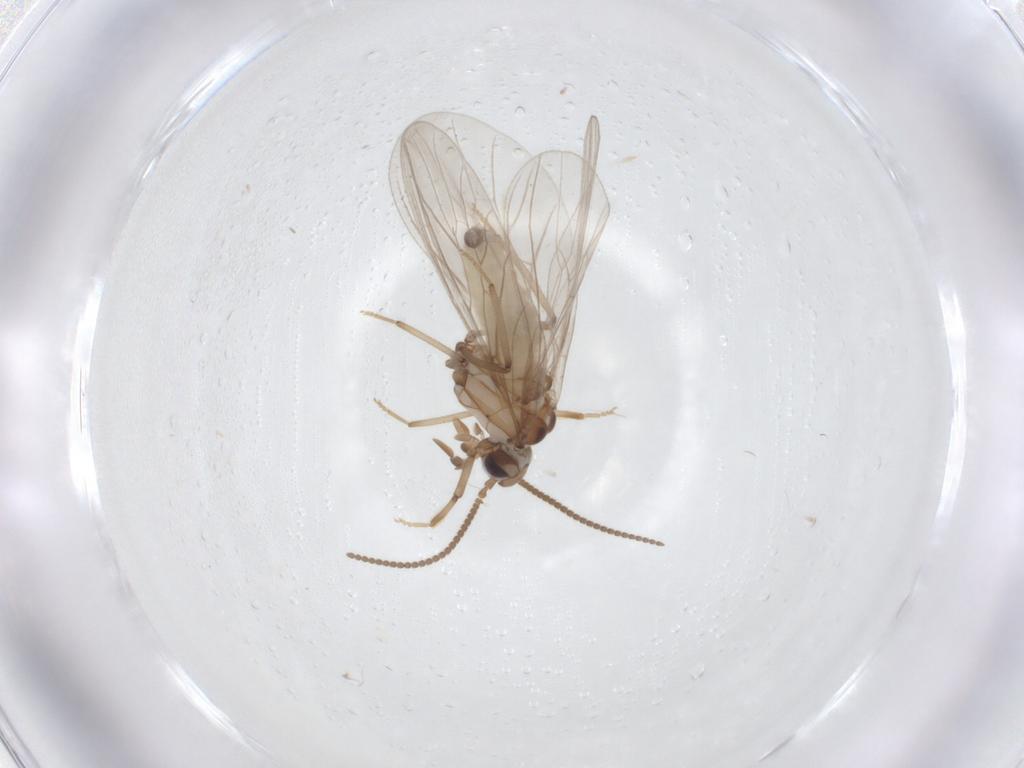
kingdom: Animalia
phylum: Arthropoda
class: Insecta
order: Neuroptera
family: Coniopterygidae
